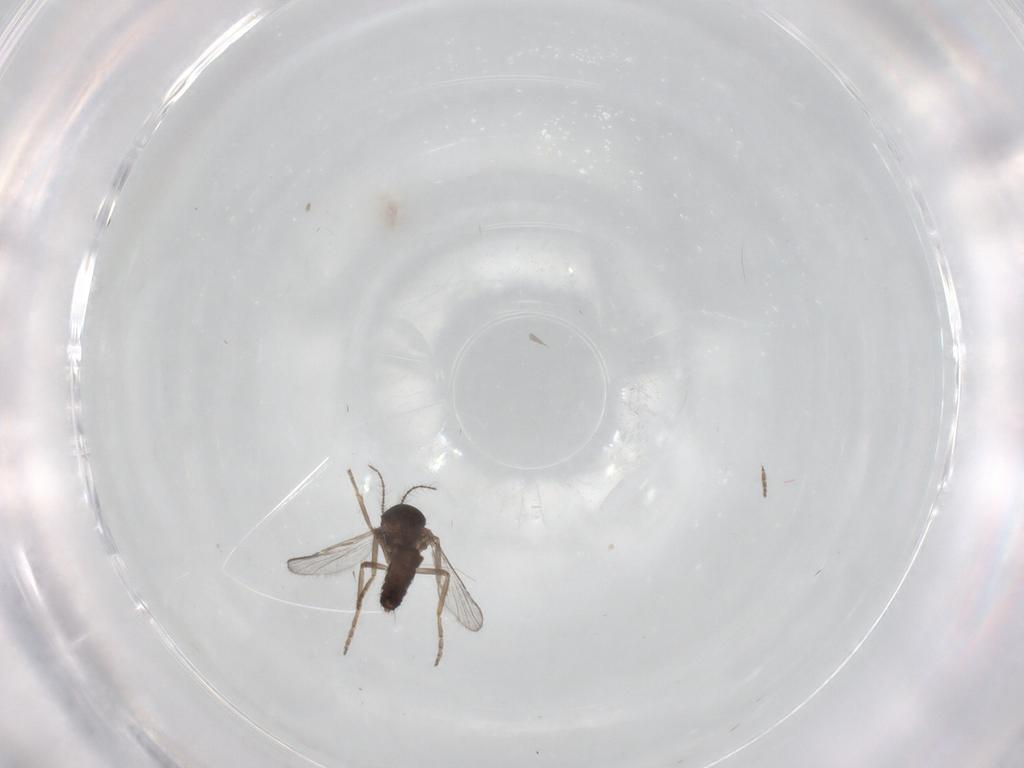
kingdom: Animalia
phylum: Arthropoda
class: Insecta
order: Diptera
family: Ceratopogonidae
